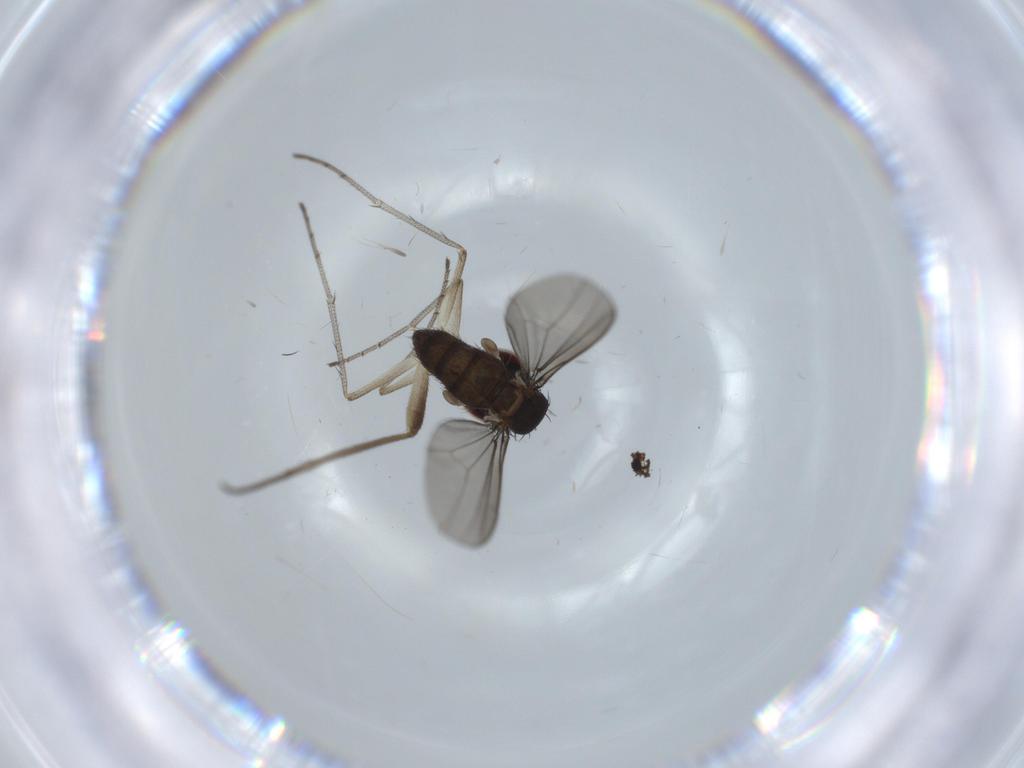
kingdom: Animalia
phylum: Arthropoda
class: Insecta
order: Diptera
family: Dolichopodidae
